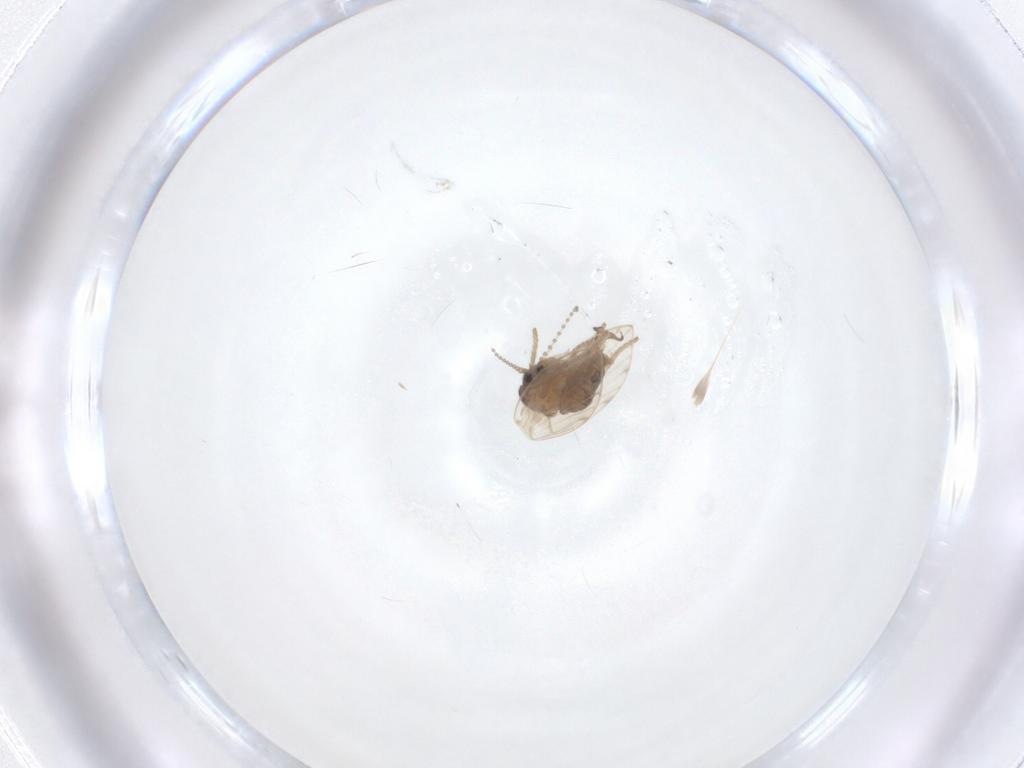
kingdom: Animalia
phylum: Arthropoda
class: Insecta
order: Diptera
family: Psychodidae
